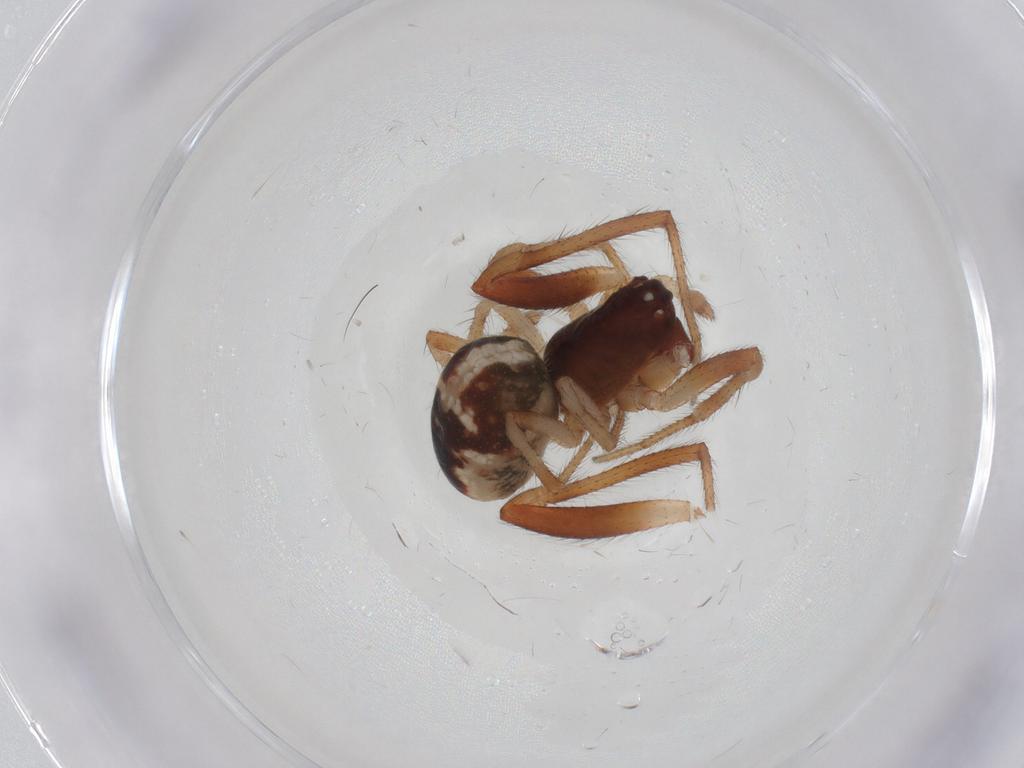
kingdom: Animalia
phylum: Arthropoda
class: Arachnida
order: Araneae
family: Theridiidae
